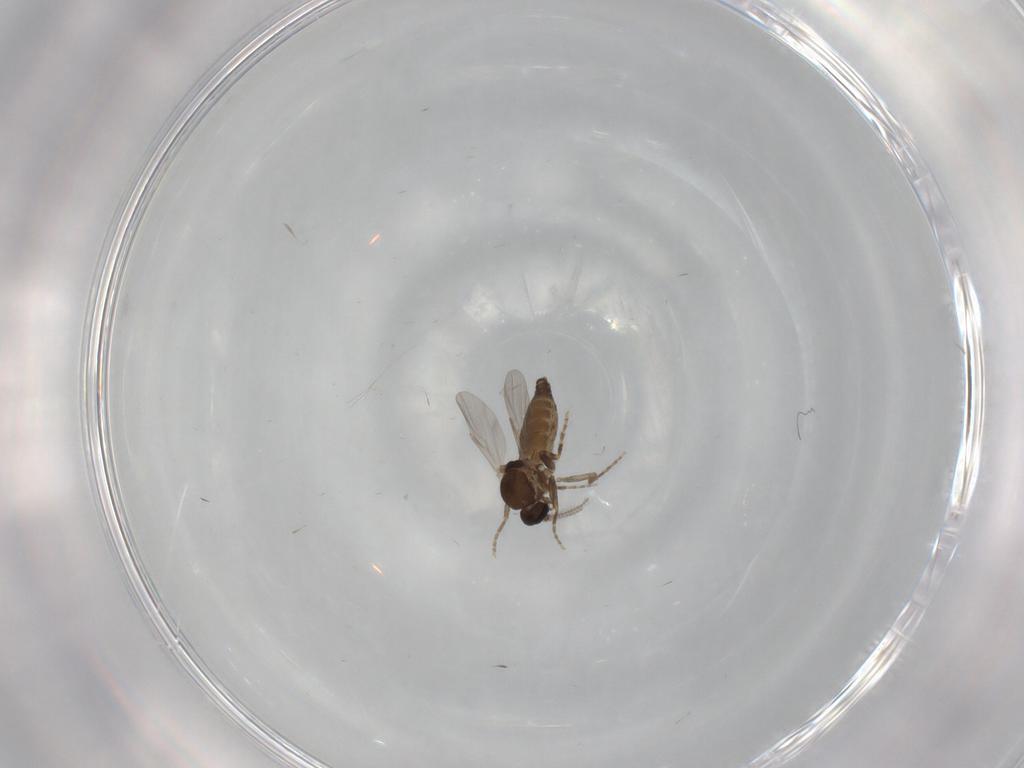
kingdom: Animalia
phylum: Arthropoda
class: Insecta
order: Diptera
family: Ceratopogonidae
